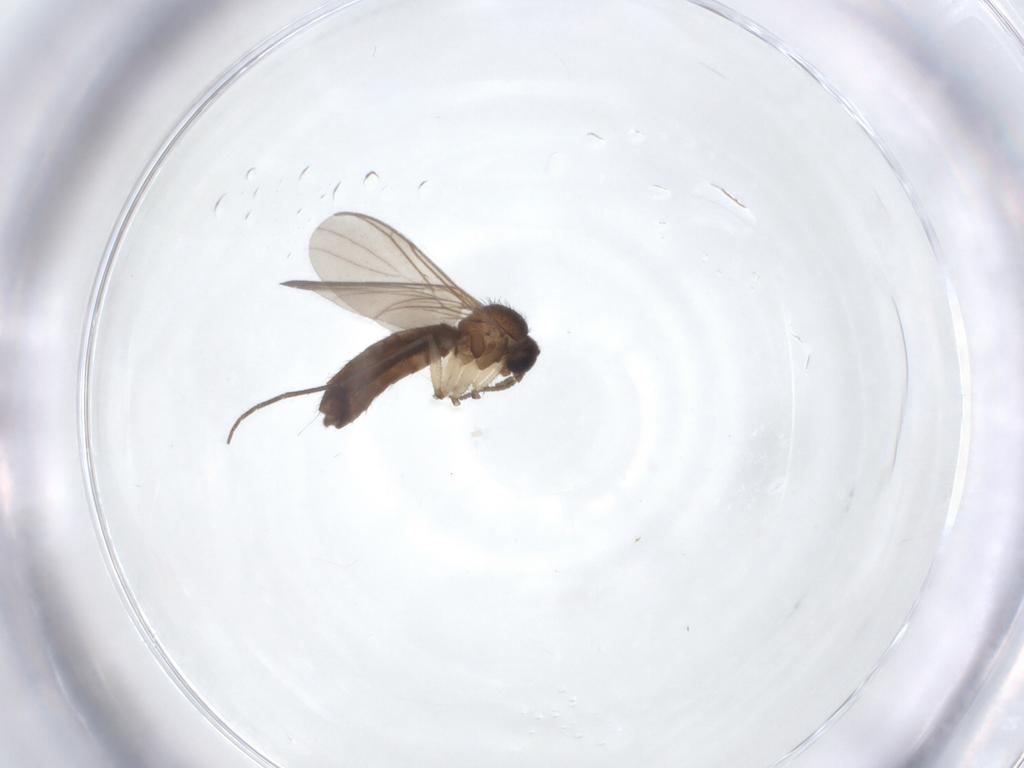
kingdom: Animalia
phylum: Arthropoda
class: Insecta
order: Diptera
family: Keroplatidae
